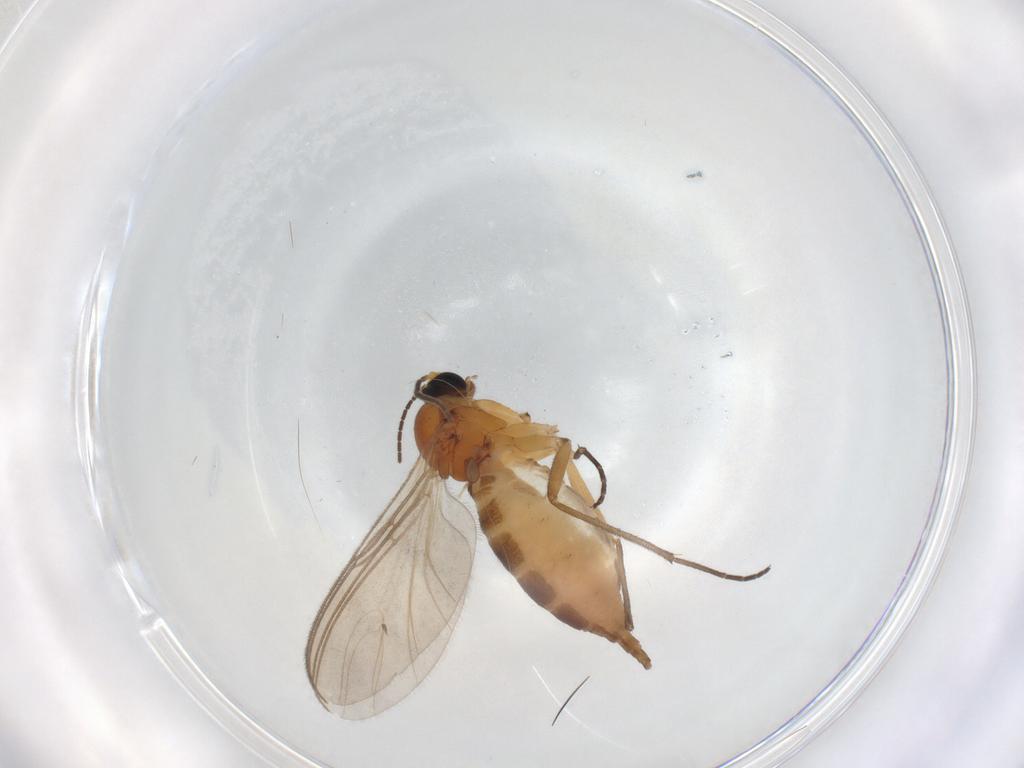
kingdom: Animalia
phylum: Arthropoda
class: Insecta
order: Diptera
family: Sciaridae
